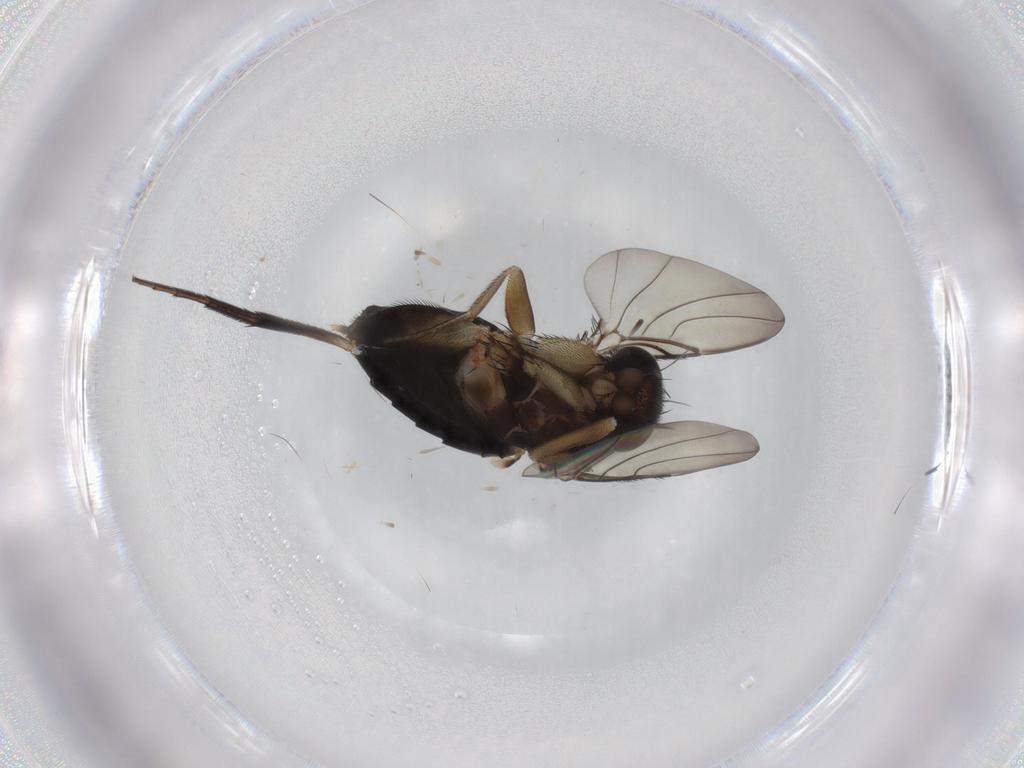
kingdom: Animalia
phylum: Arthropoda
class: Insecta
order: Diptera
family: Phoridae
